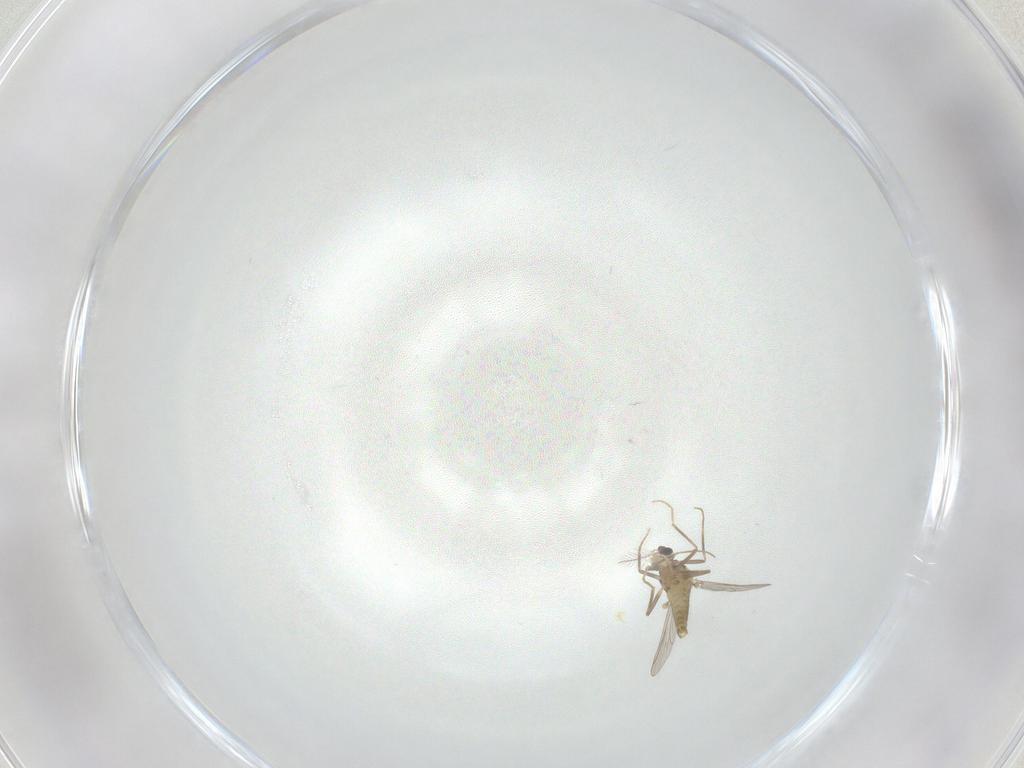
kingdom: Animalia
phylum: Arthropoda
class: Insecta
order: Diptera
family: Chironomidae
